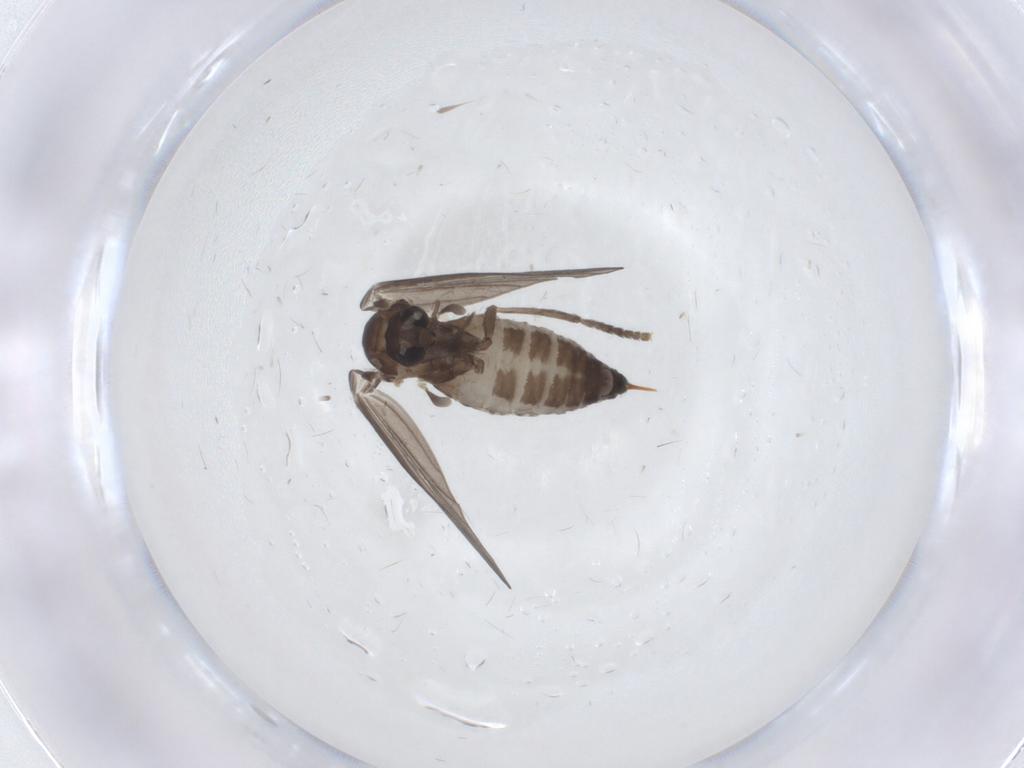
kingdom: Animalia
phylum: Arthropoda
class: Insecta
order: Diptera
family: Psychodidae
